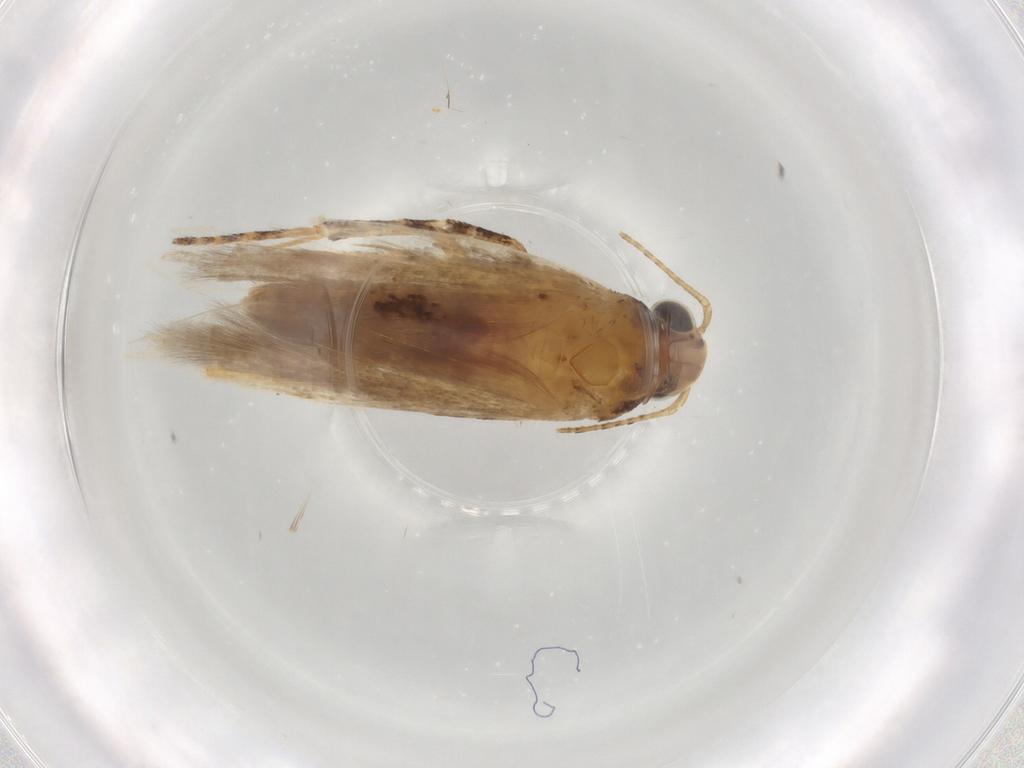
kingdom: Animalia
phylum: Arthropoda
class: Insecta
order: Lepidoptera
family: Gelechiidae
